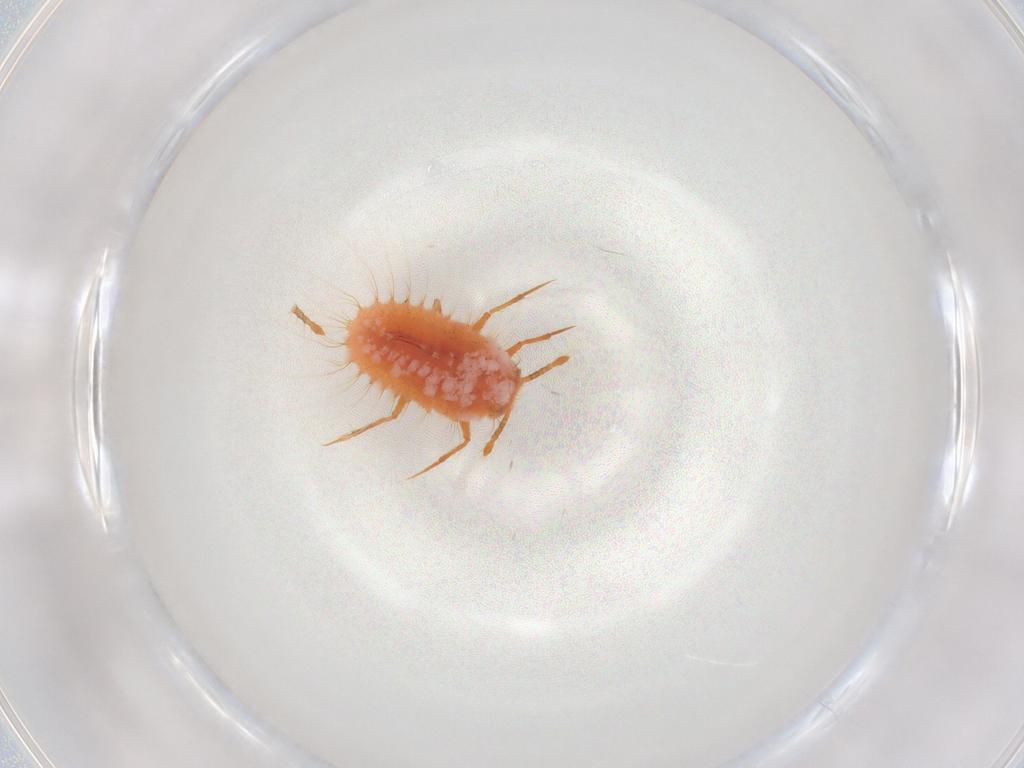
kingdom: Animalia
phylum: Arthropoda
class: Insecta
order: Hemiptera
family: Coccoidea_incertae_sedis
